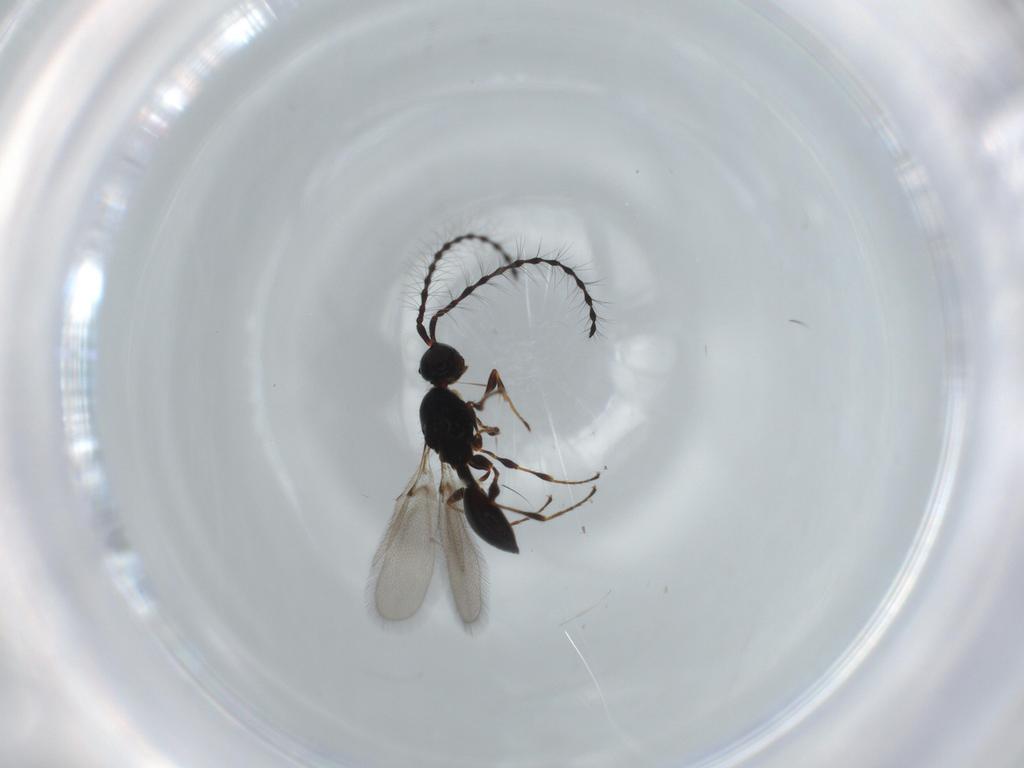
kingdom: Animalia
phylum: Arthropoda
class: Insecta
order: Hymenoptera
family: Diapriidae
